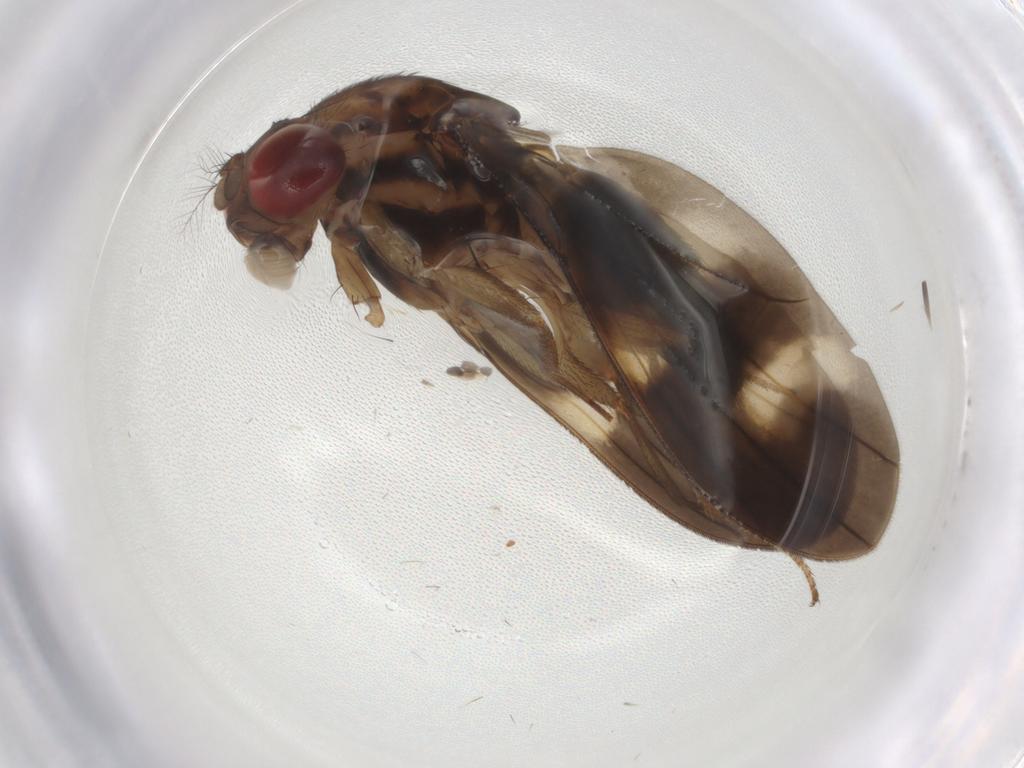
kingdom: Animalia
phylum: Arthropoda
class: Insecta
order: Diptera
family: Drosophilidae
